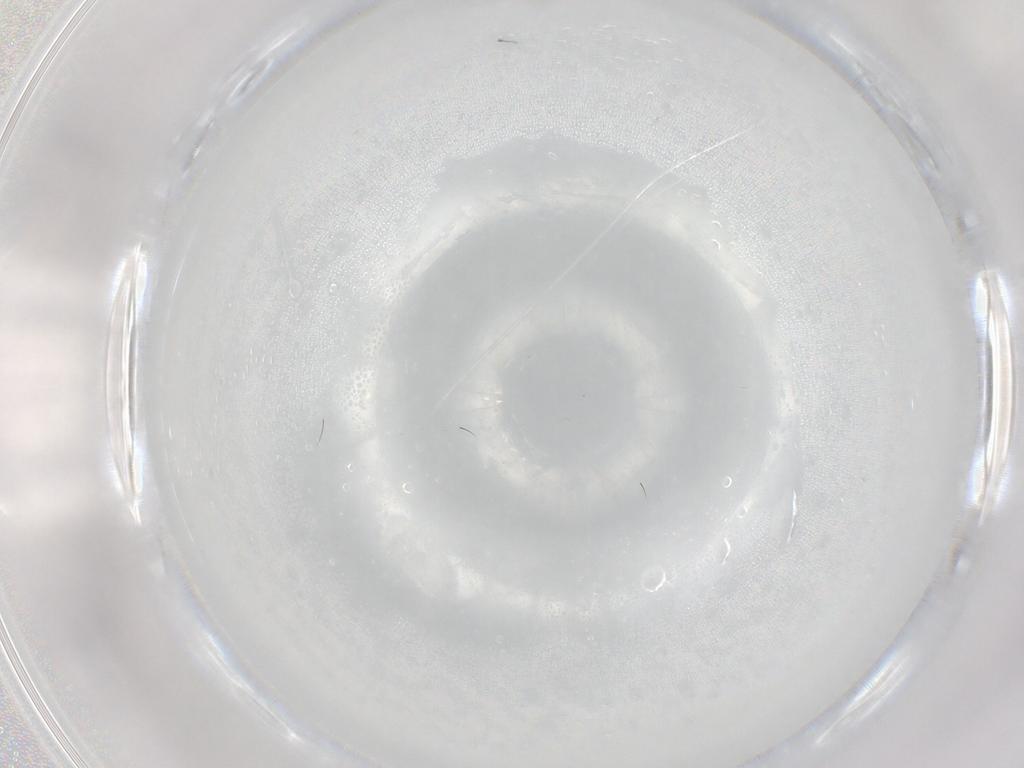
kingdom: Animalia
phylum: Arthropoda
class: Insecta
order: Diptera
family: Ceratopogonidae
